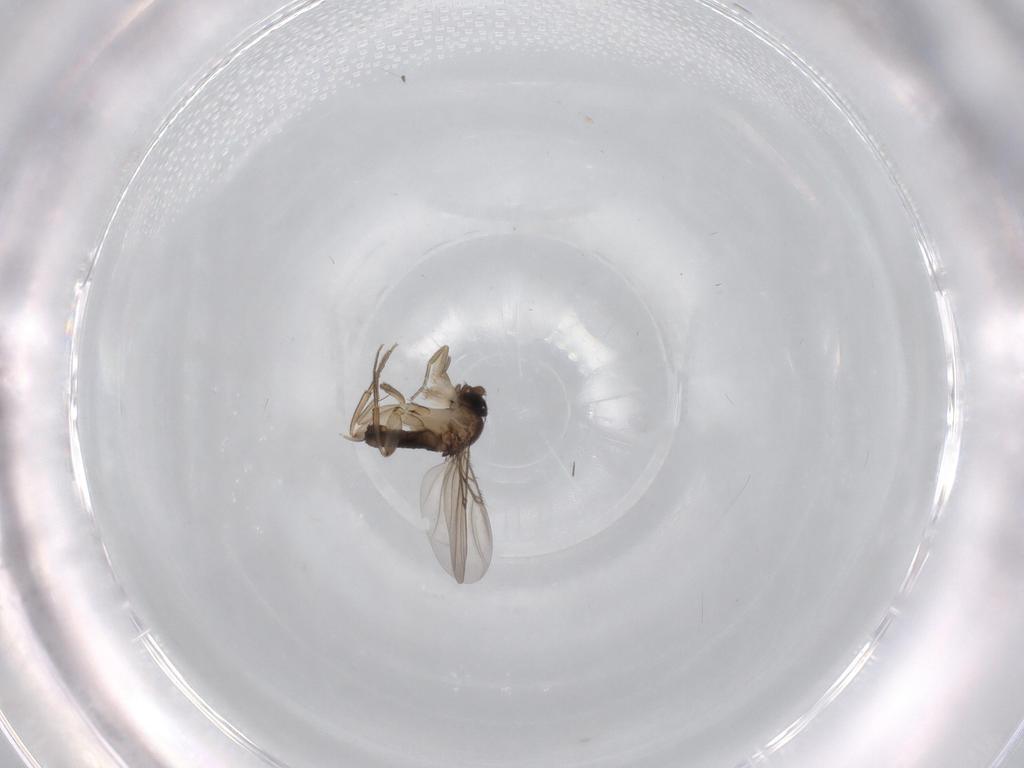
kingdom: Animalia
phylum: Arthropoda
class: Insecta
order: Diptera
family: Phoridae
